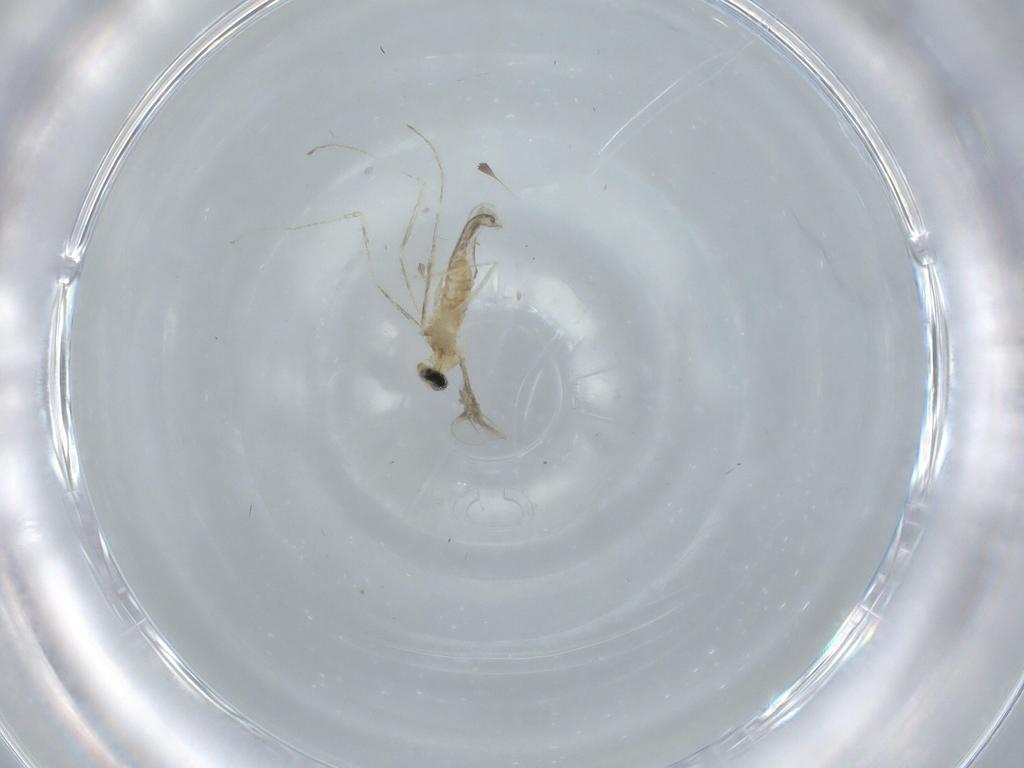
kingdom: Animalia
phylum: Arthropoda
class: Insecta
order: Diptera
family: Cecidomyiidae
